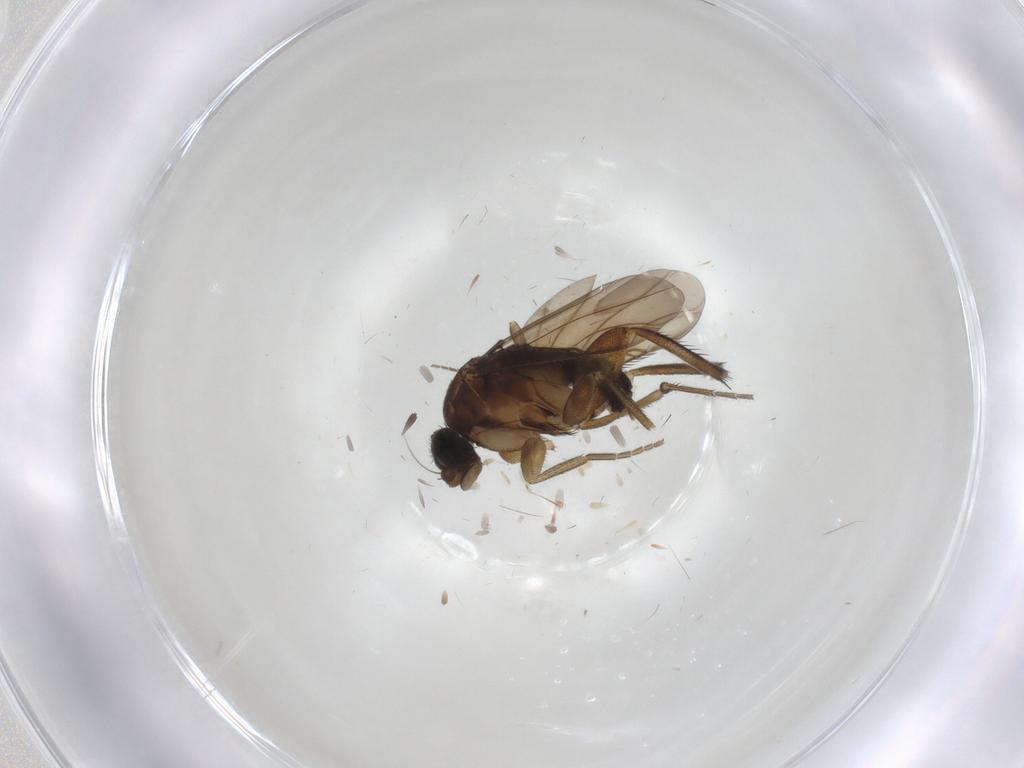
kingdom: Animalia
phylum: Arthropoda
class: Insecta
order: Diptera
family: Phoridae
